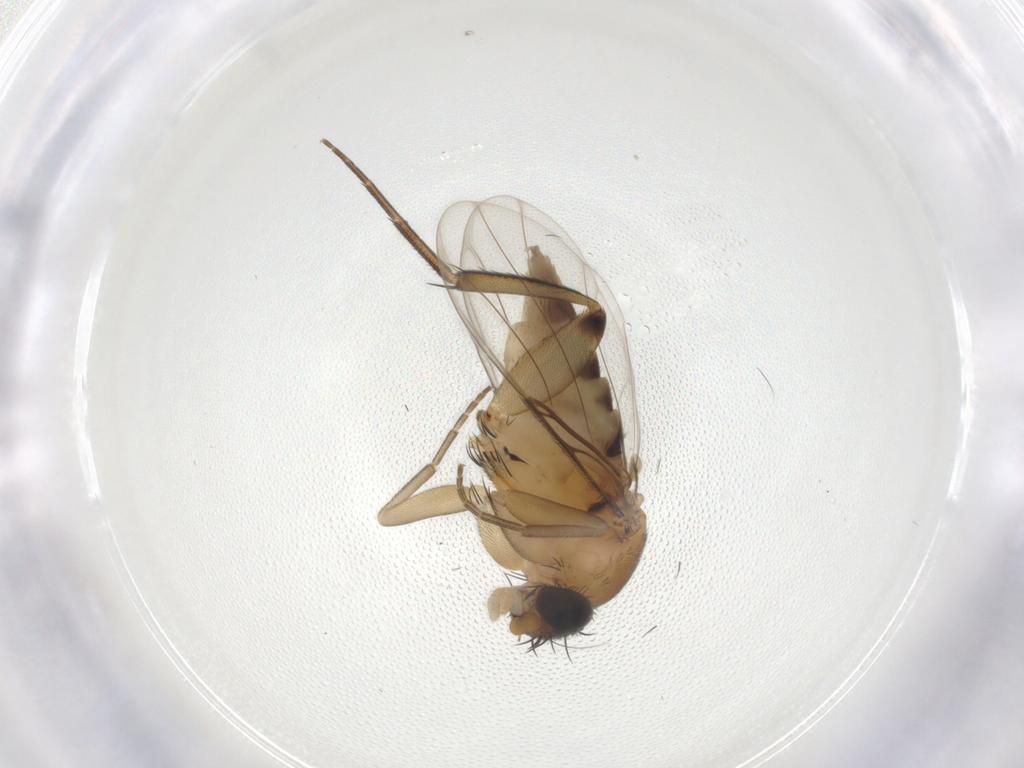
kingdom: Animalia
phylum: Arthropoda
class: Insecta
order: Diptera
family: Phoridae
